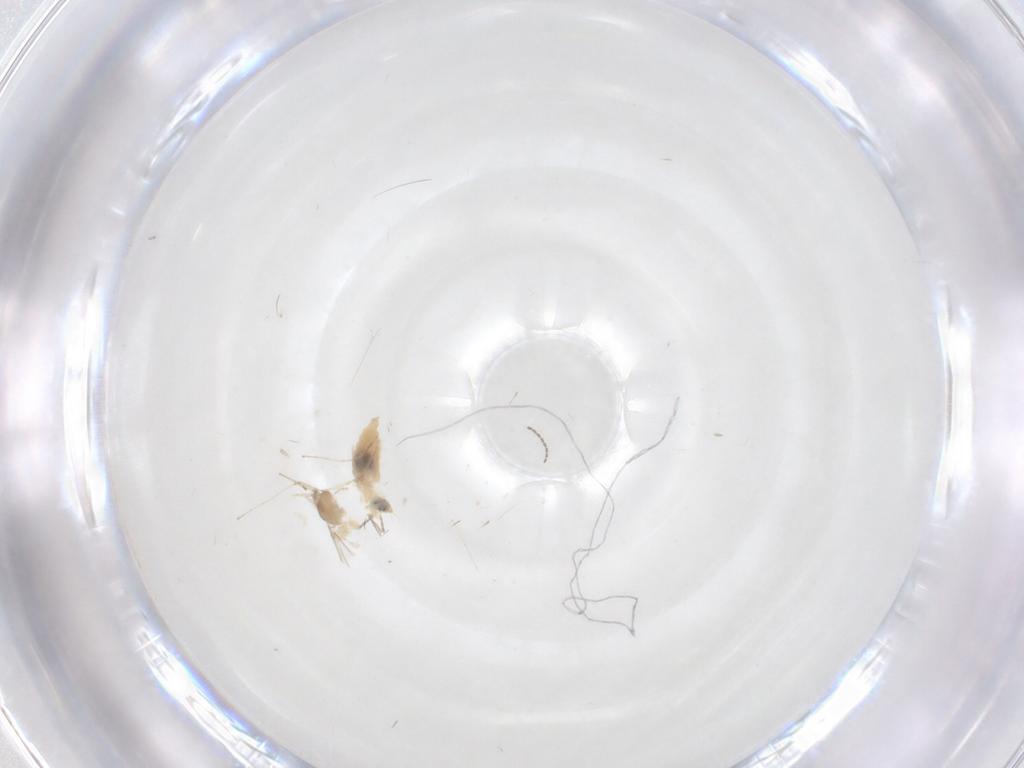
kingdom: Animalia
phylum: Arthropoda
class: Insecta
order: Diptera
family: Cecidomyiidae
